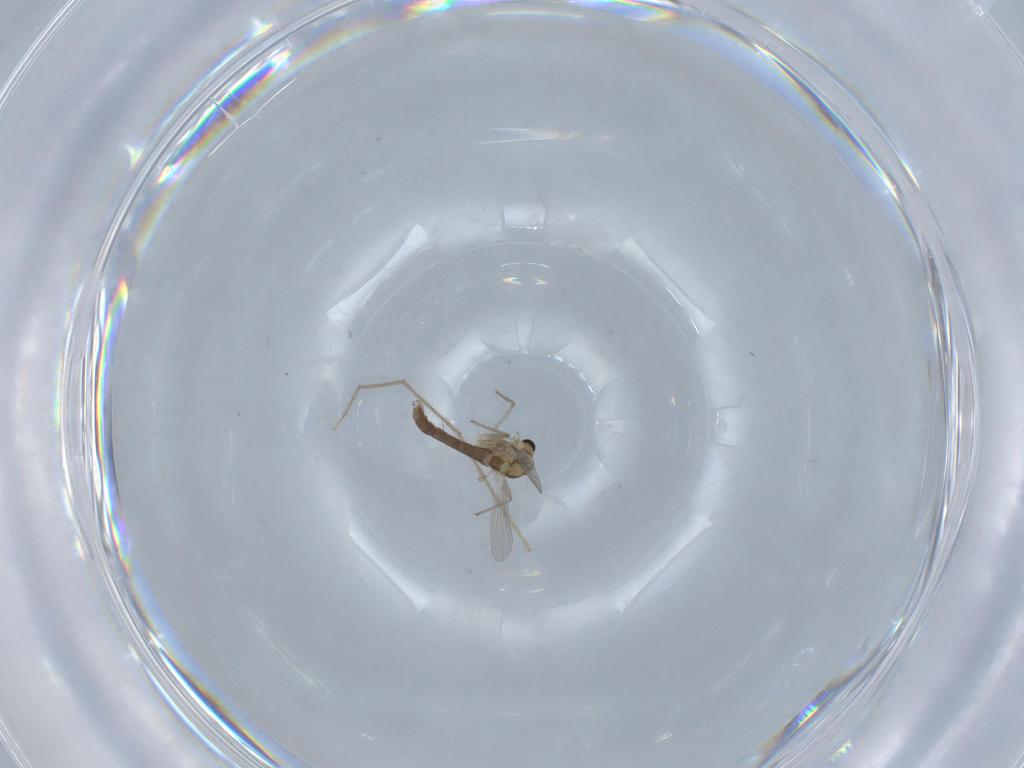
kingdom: Animalia
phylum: Arthropoda
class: Insecta
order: Diptera
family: Chironomidae
